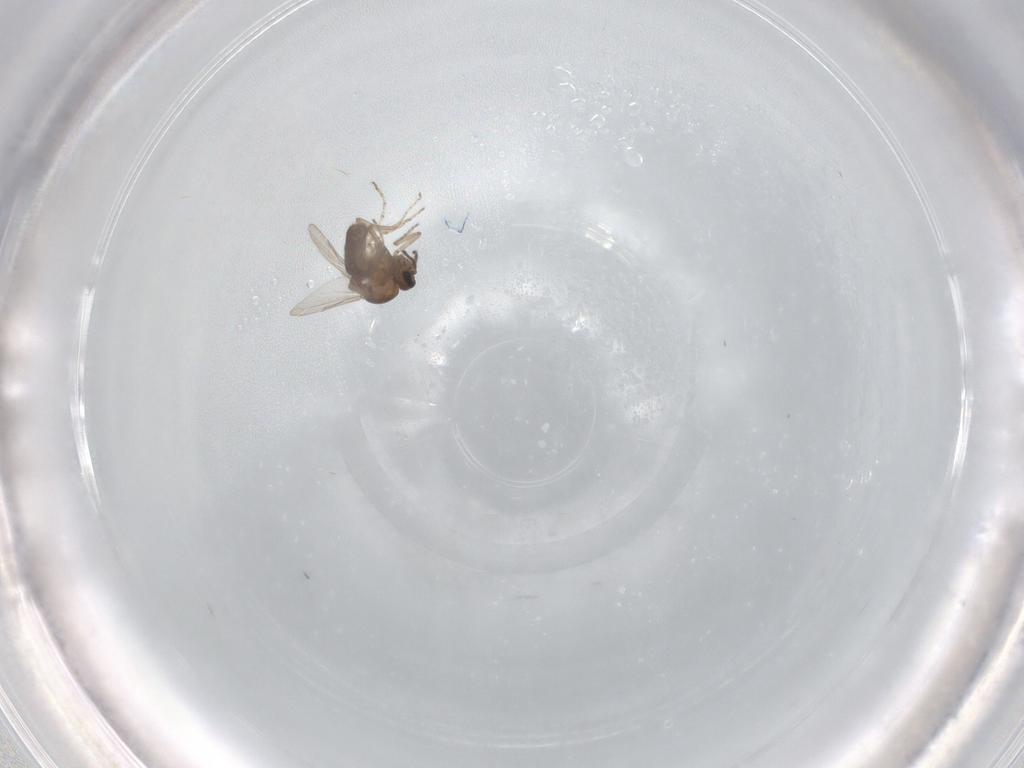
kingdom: Animalia
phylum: Arthropoda
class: Insecta
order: Diptera
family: Ceratopogonidae
